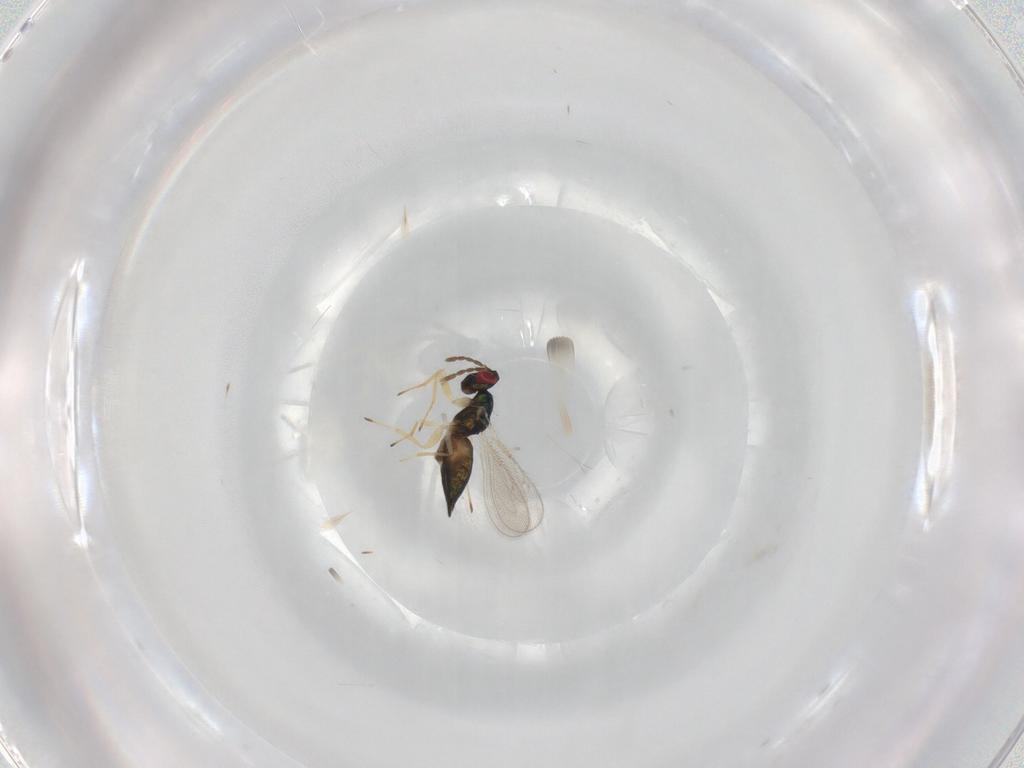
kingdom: Animalia
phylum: Arthropoda
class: Insecta
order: Hymenoptera
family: Eulophidae
